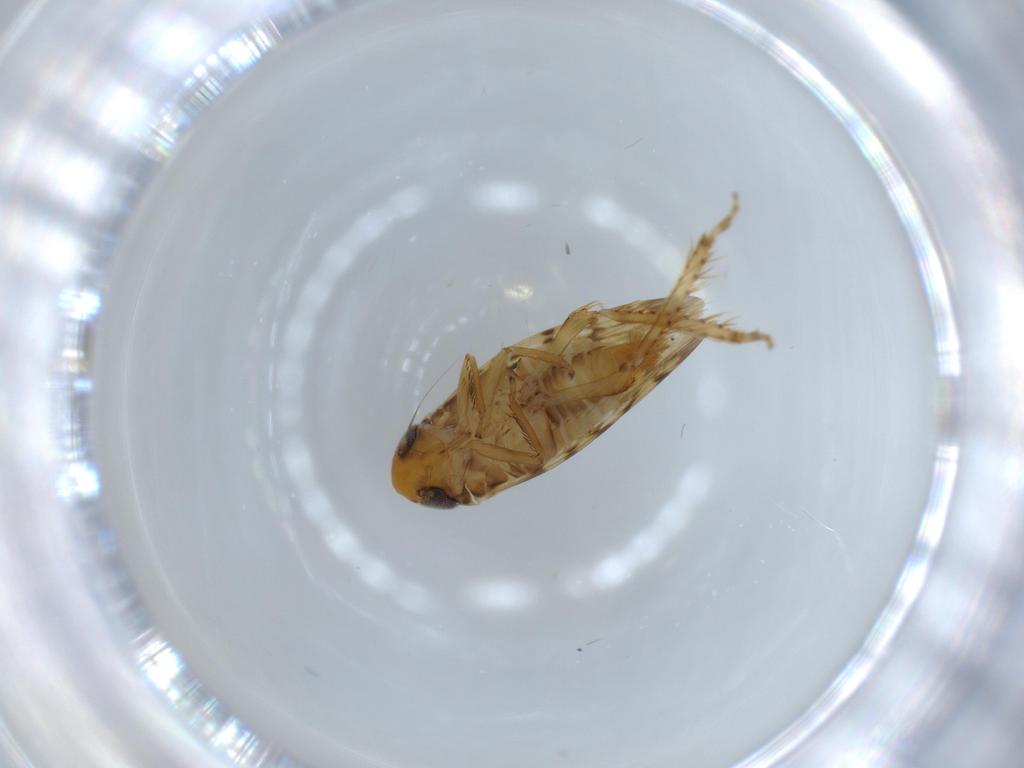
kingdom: Animalia
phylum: Arthropoda
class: Insecta
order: Hemiptera
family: Cicadellidae
